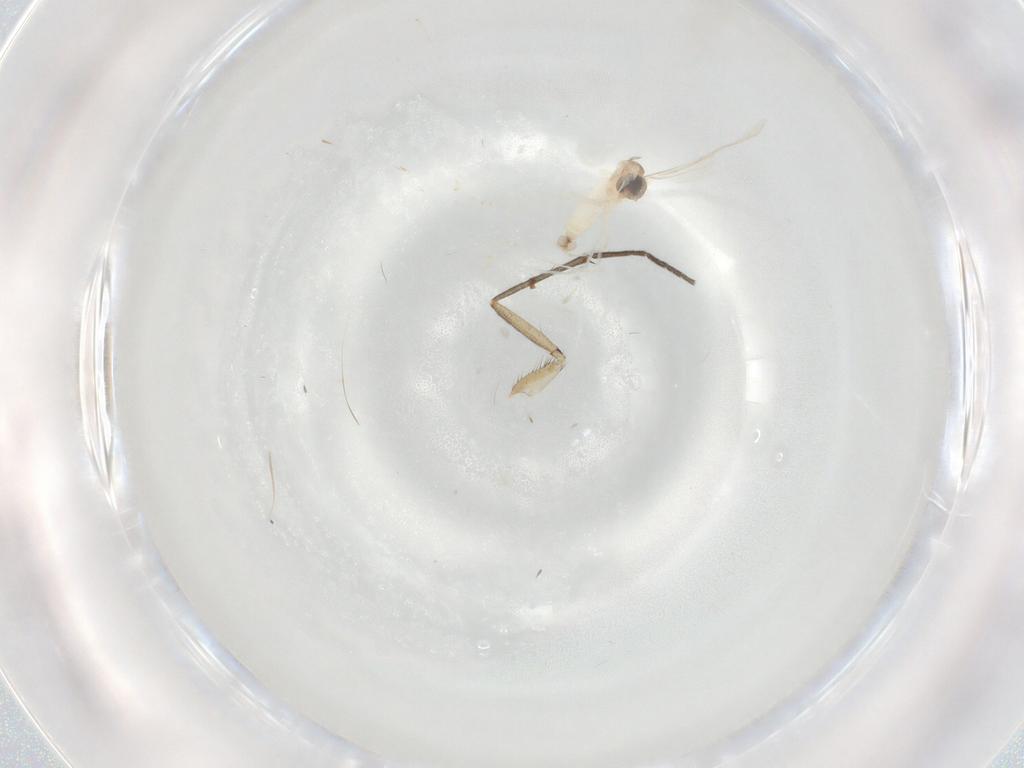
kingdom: Animalia
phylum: Arthropoda
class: Insecta
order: Diptera
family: Cecidomyiidae
